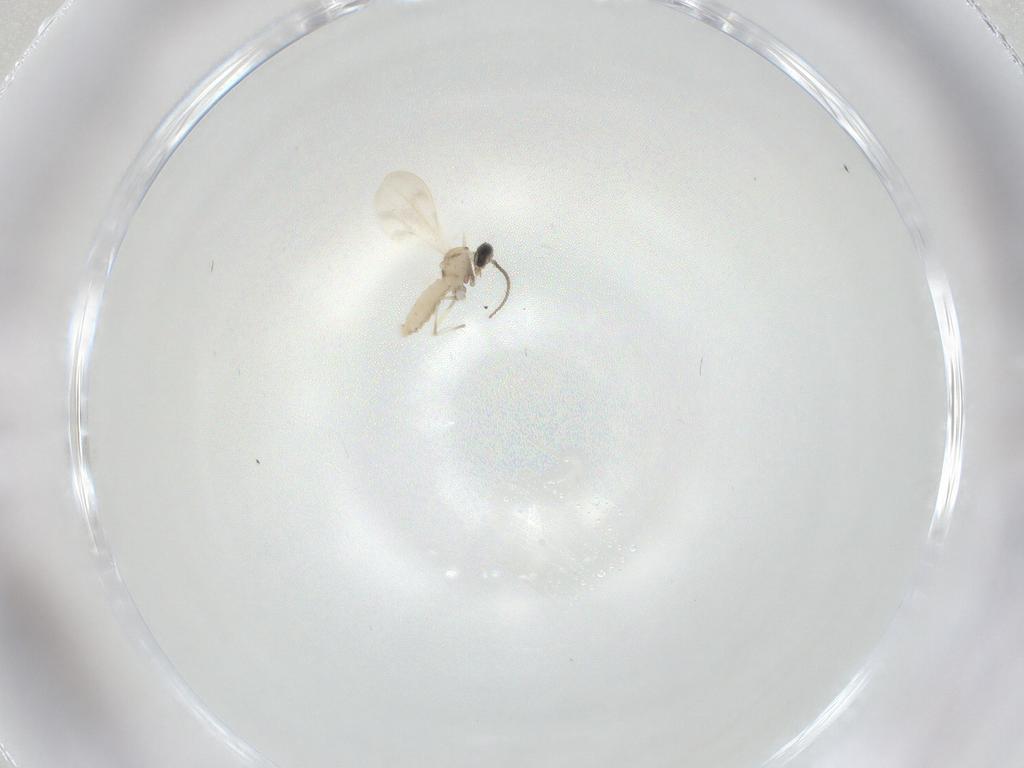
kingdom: Animalia
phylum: Arthropoda
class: Insecta
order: Diptera
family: Cecidomyiidae
